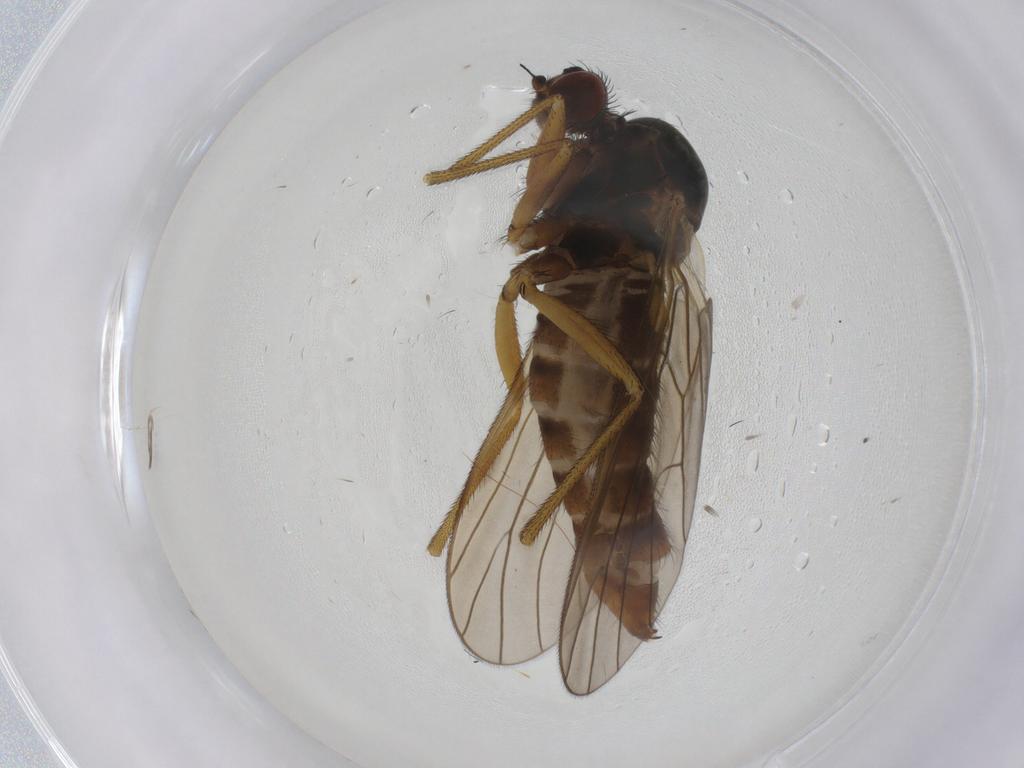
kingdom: Animalia
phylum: Arthropoda
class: Insecta
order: Diptera
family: Brachystomatidae
